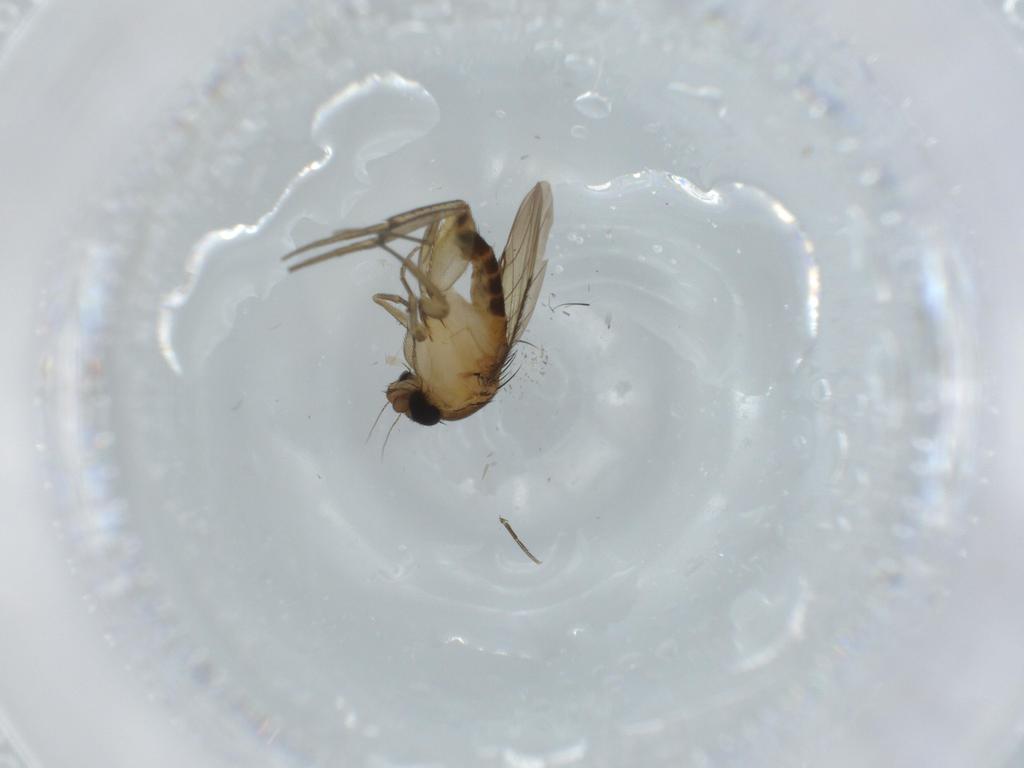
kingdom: Animalia
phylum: Arthropoda
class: Insecta
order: Diptera
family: Phoridae
